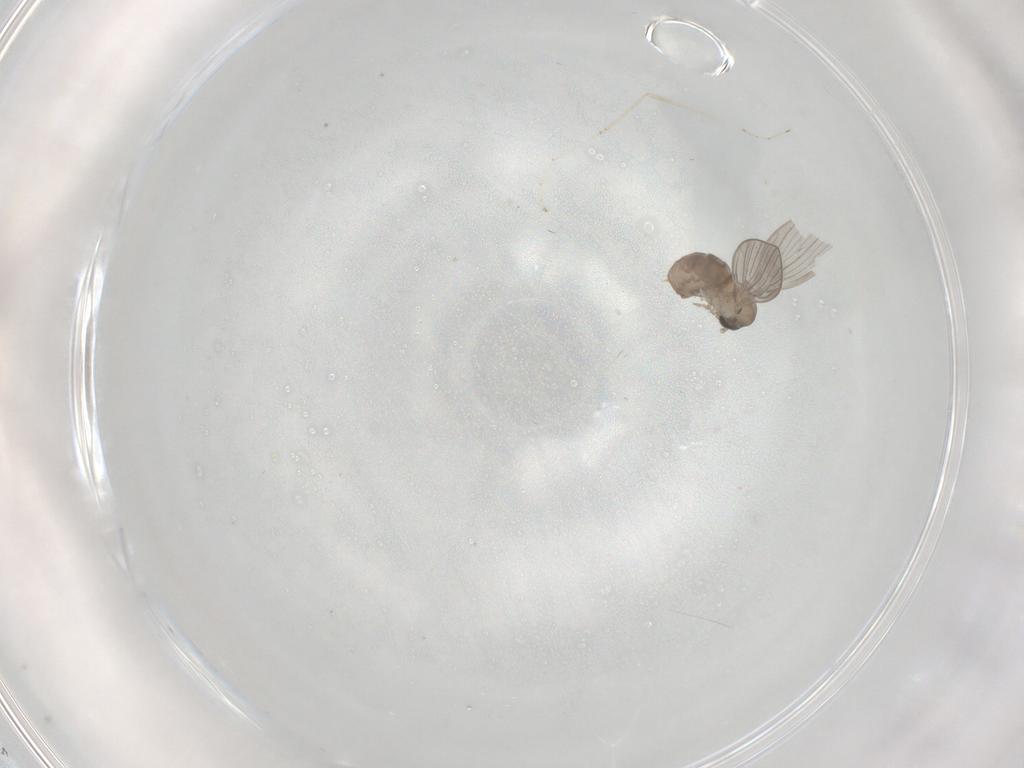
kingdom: Animalia
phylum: Arthropoda
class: Insecta
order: Diptera
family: Psychodidae
